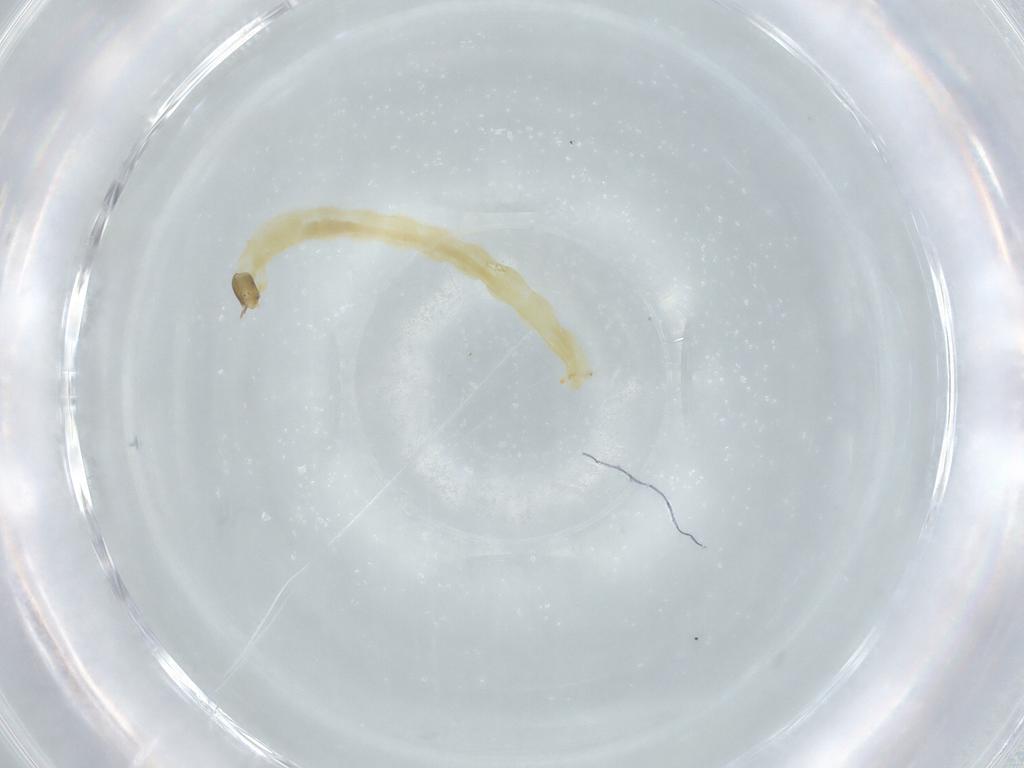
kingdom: Animalia
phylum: Arthropoda
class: Insecta
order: Diptera
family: Chironomidae
